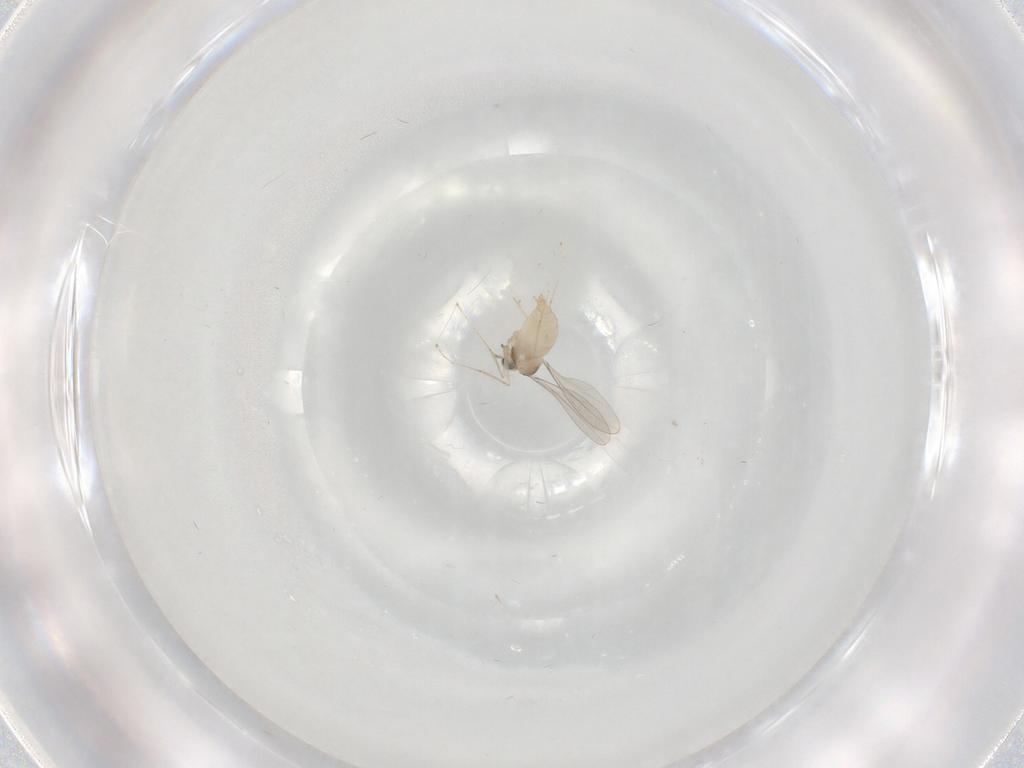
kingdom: Animalia
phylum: Arthropoda
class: Insecta
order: Diptera
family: Cecidomyiidae
